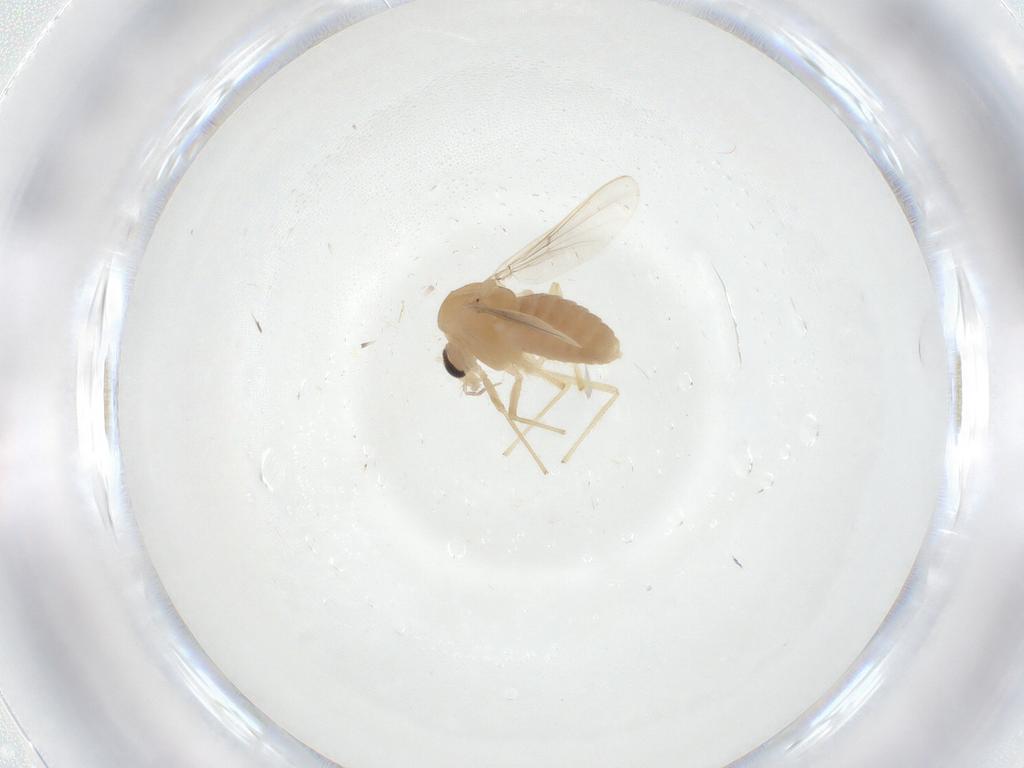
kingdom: Animalia
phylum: Arthropoda
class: Insecta
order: Diptera
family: Chironomidae
